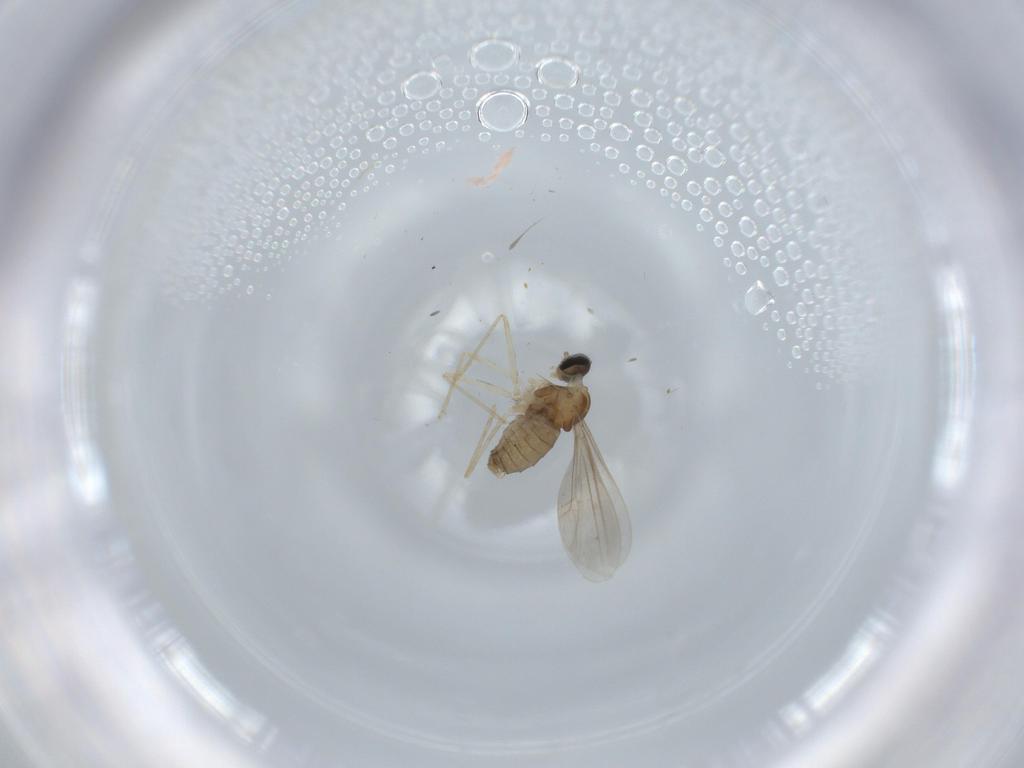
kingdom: Animalia
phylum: Arthropoda
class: Insecta
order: Diptera
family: Cecidomyiidae
